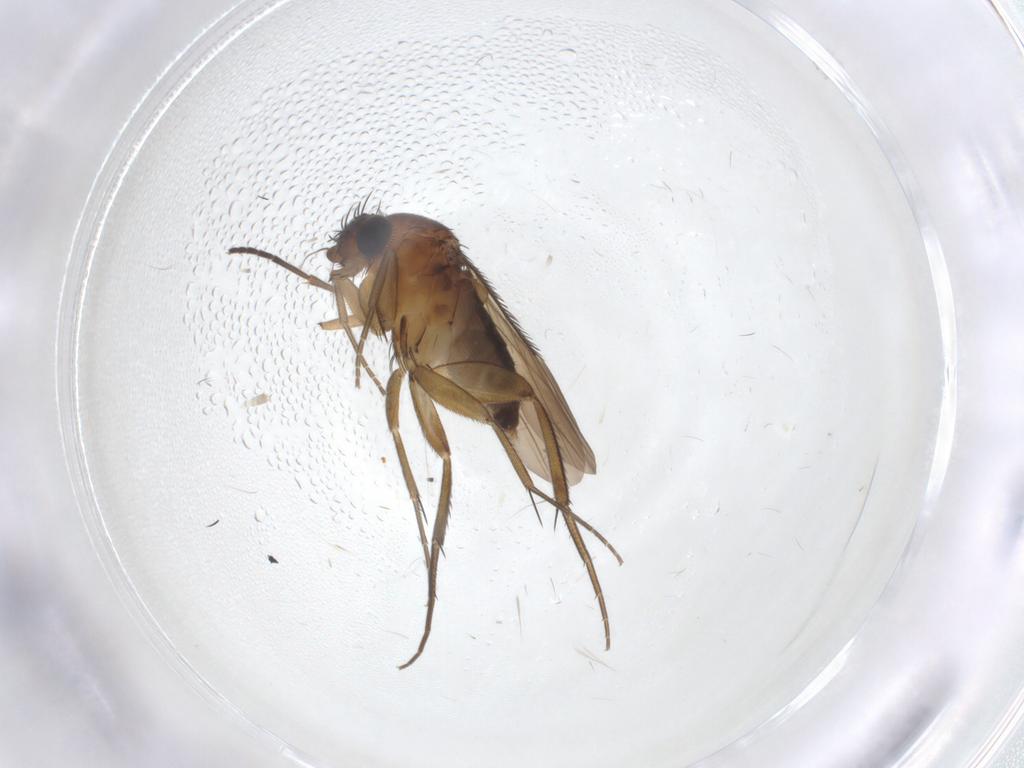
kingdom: Animalia
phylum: Arthropoda
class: Insecta
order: Diptera
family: Phoridae
